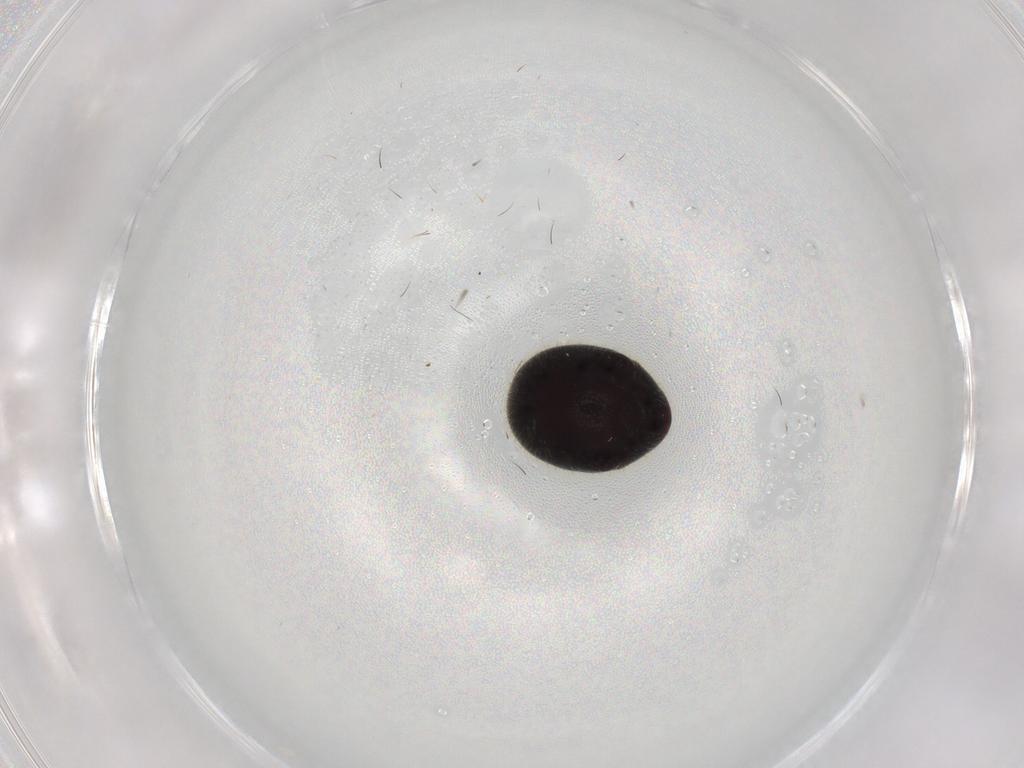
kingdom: Animalia
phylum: Arthropoda
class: Insecta
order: Coleoptera
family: Ptinidae
